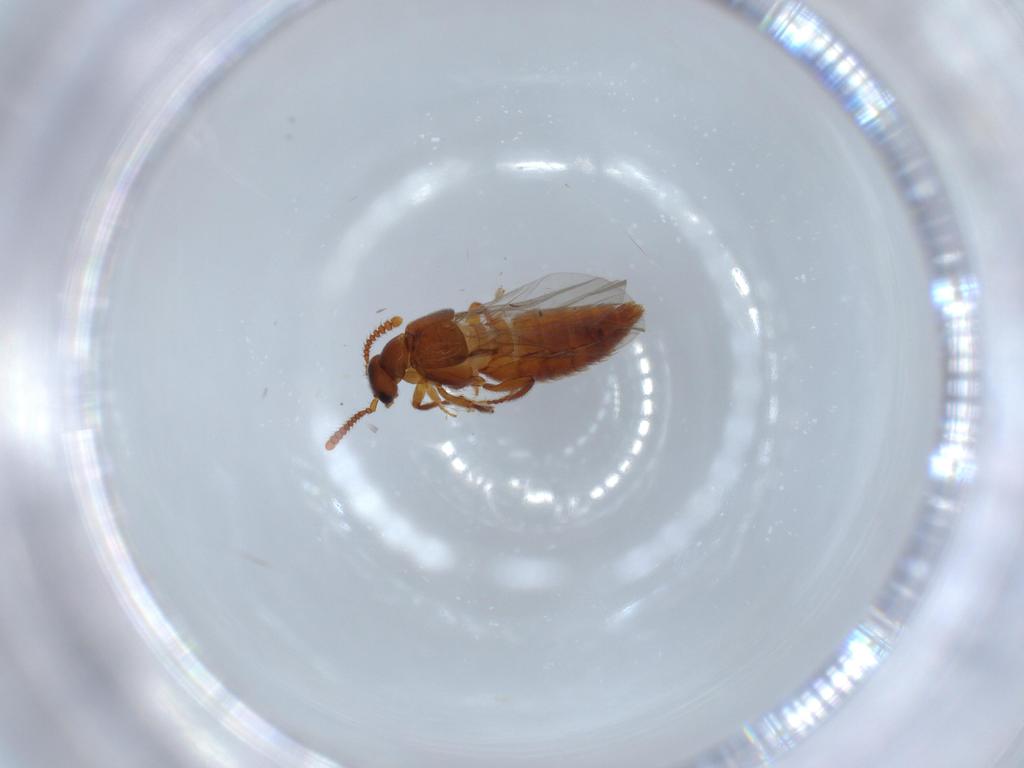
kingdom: Animalia
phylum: Arthropoda
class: Insecta
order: Coleoptera
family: Staphylinidae
